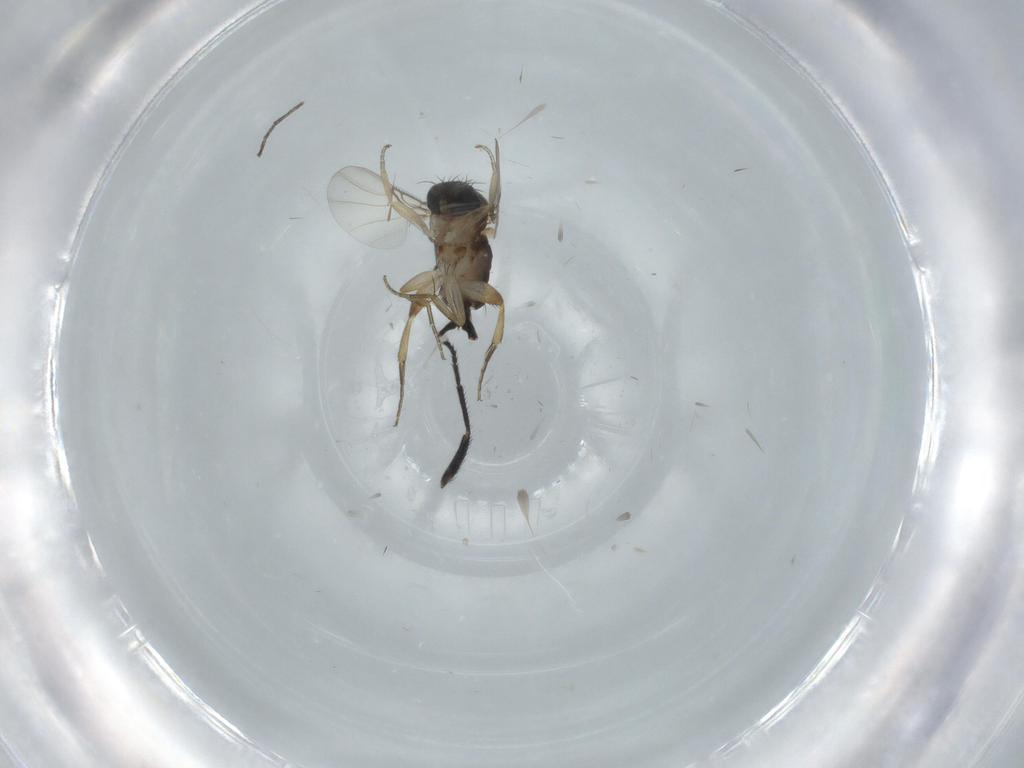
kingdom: Animalia
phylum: Arthropoda
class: Insecta
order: Diptera
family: Phoridae
